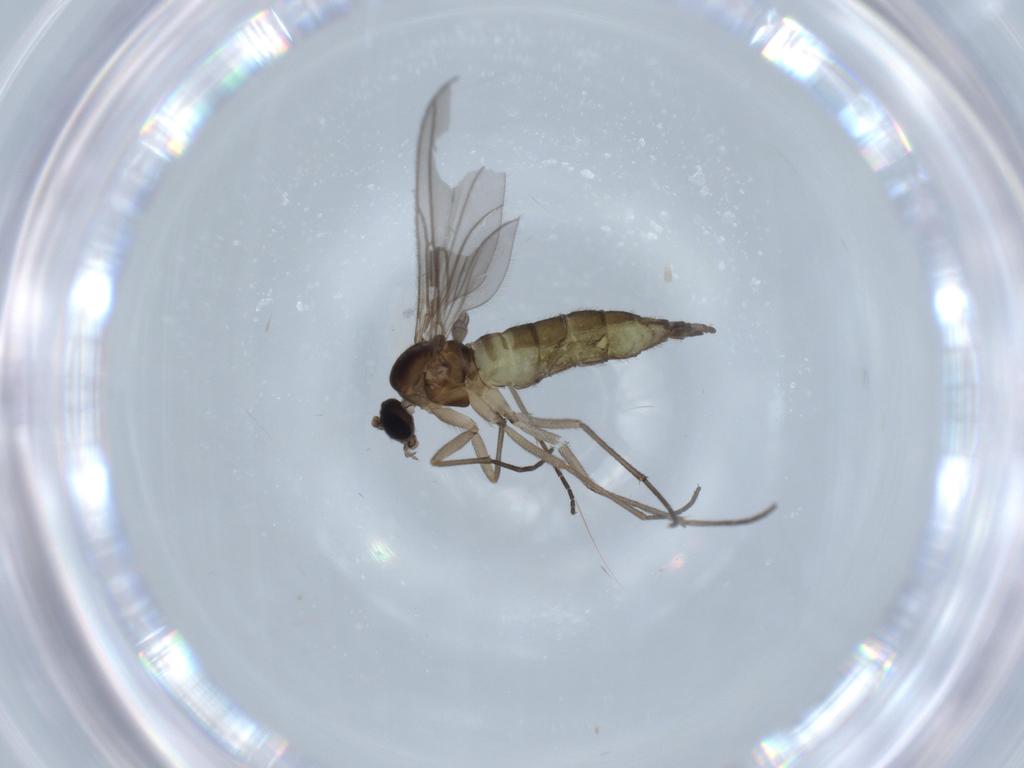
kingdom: Animalia
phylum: Arthropoda
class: Insecta
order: Diptera
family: Sciaridae
